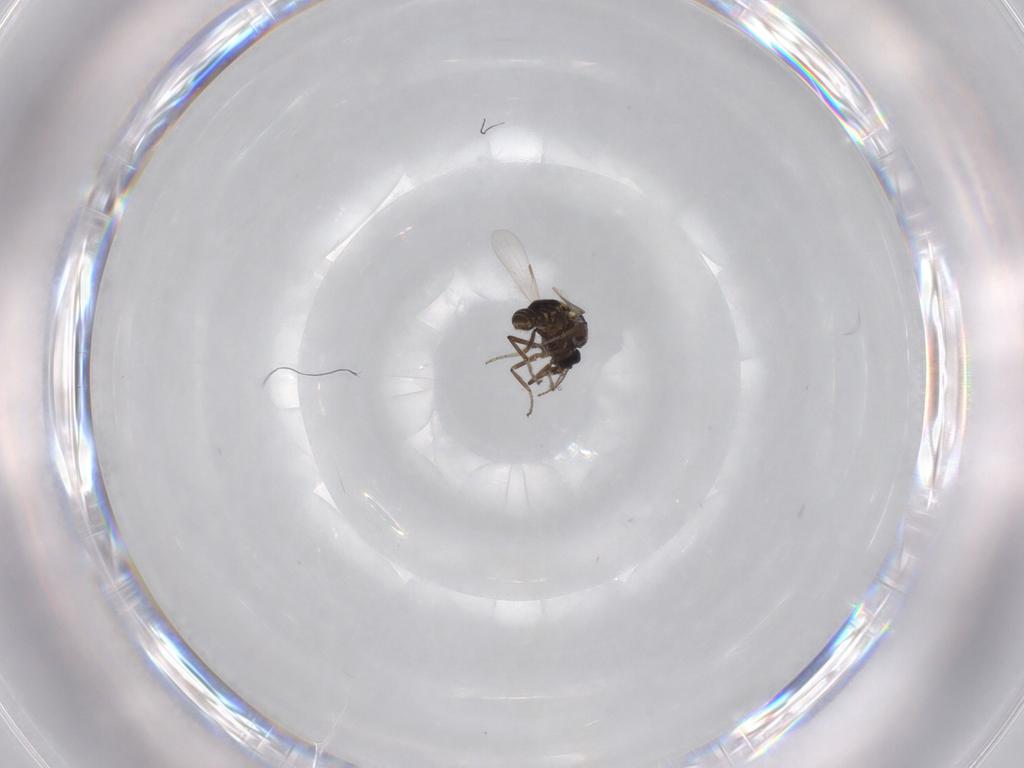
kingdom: Animalia
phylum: Arthropoda
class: Insecta
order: Diptera
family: Ceratopogonidae
